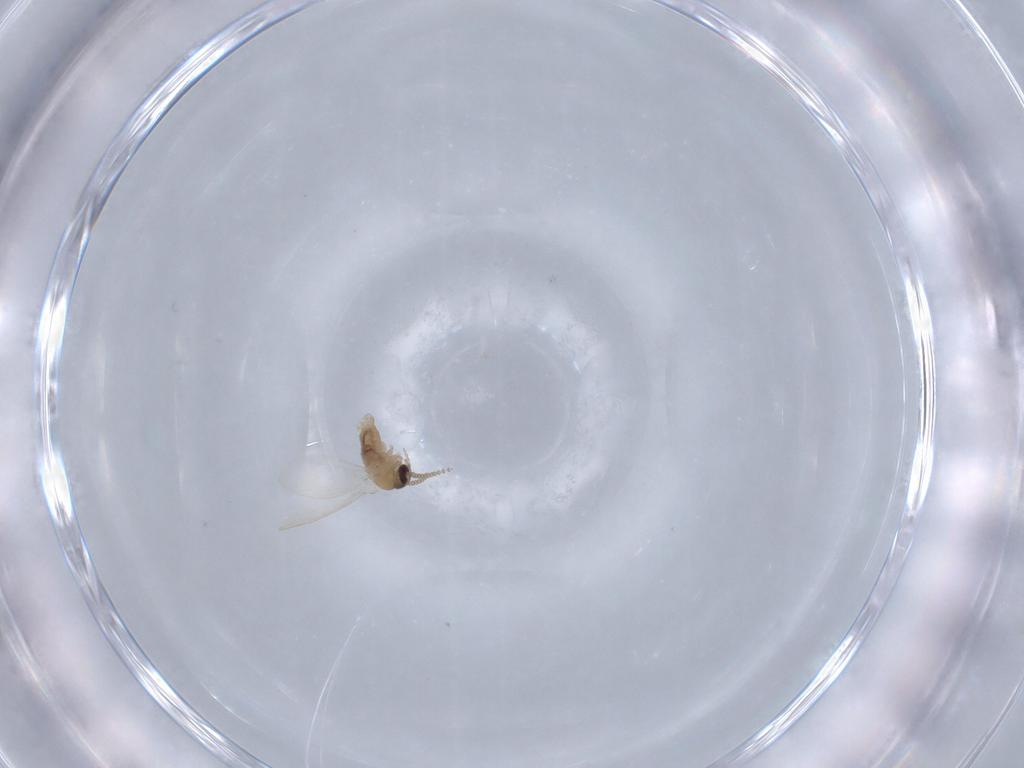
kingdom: Animalia
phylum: Arthropoda
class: Insecta
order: Diptera
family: Psychodidae
